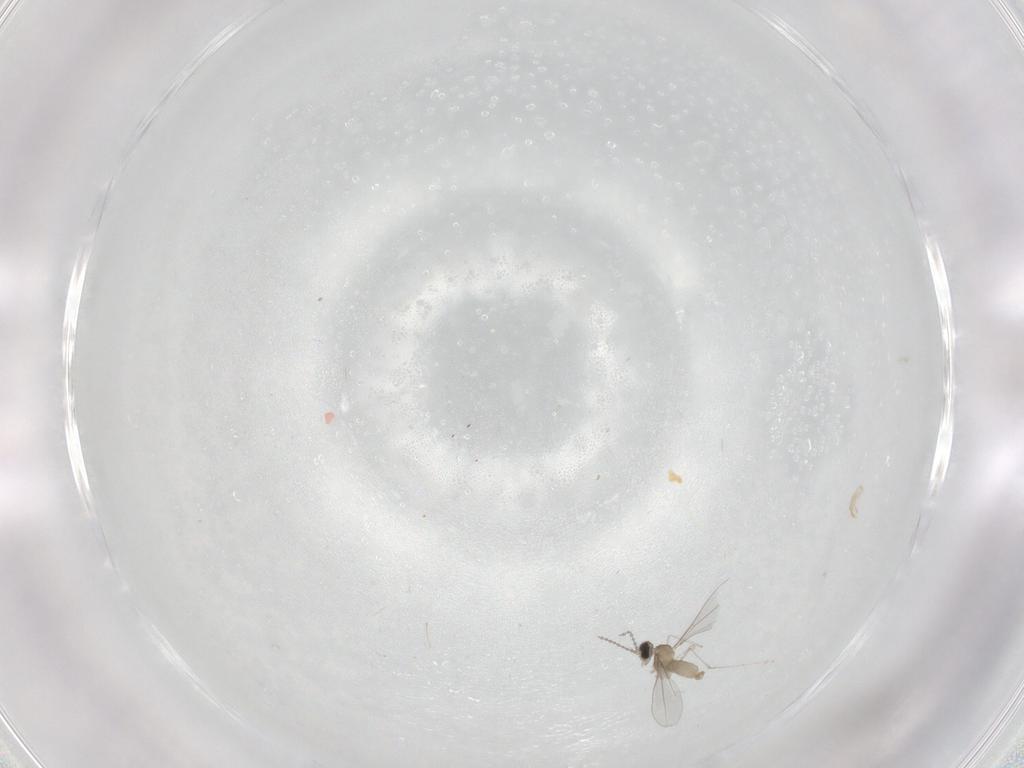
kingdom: Animalia
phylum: Arthropoda
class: Insecta
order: Diptera
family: Cecidomyiidae
